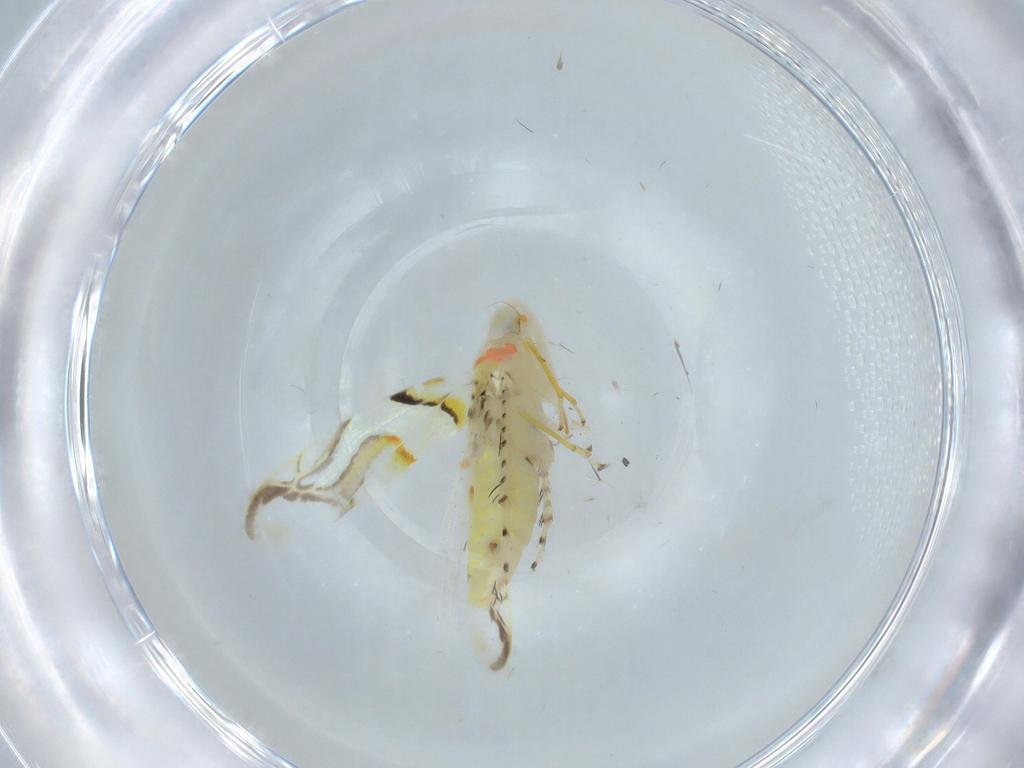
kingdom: Animalia
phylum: Arthropoda
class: Insecta
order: Hemiptera
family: Cicadellidae
